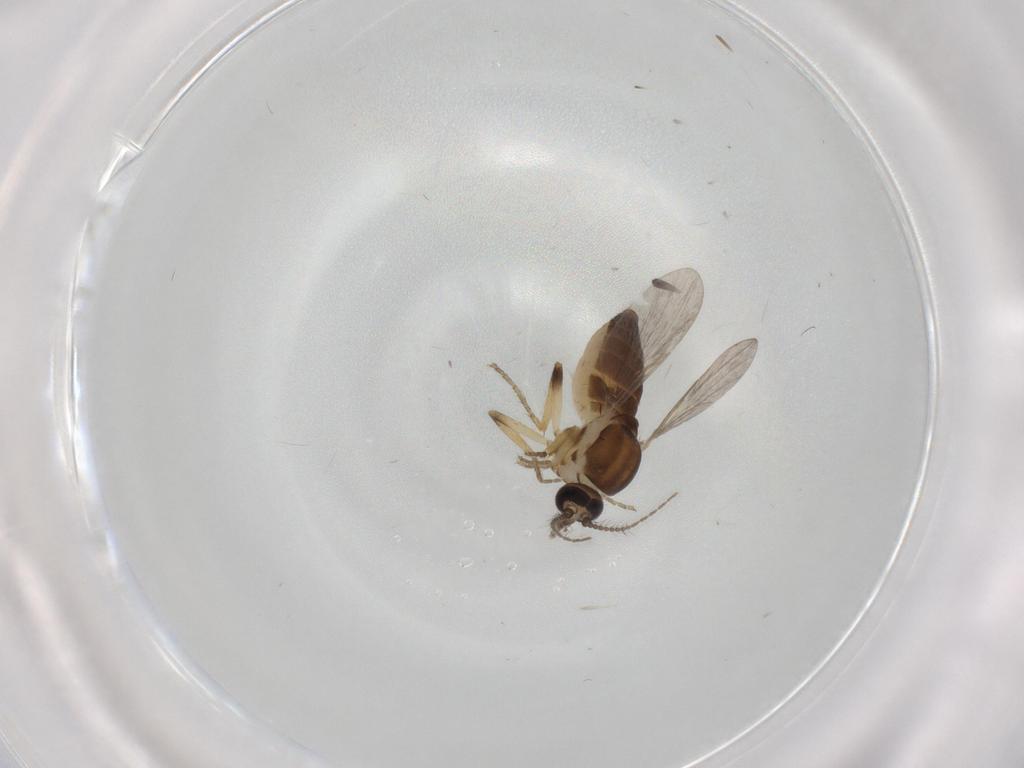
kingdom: Animalia
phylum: Arthropoda
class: Insecta
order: Diptera
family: Ceratopogonidae
